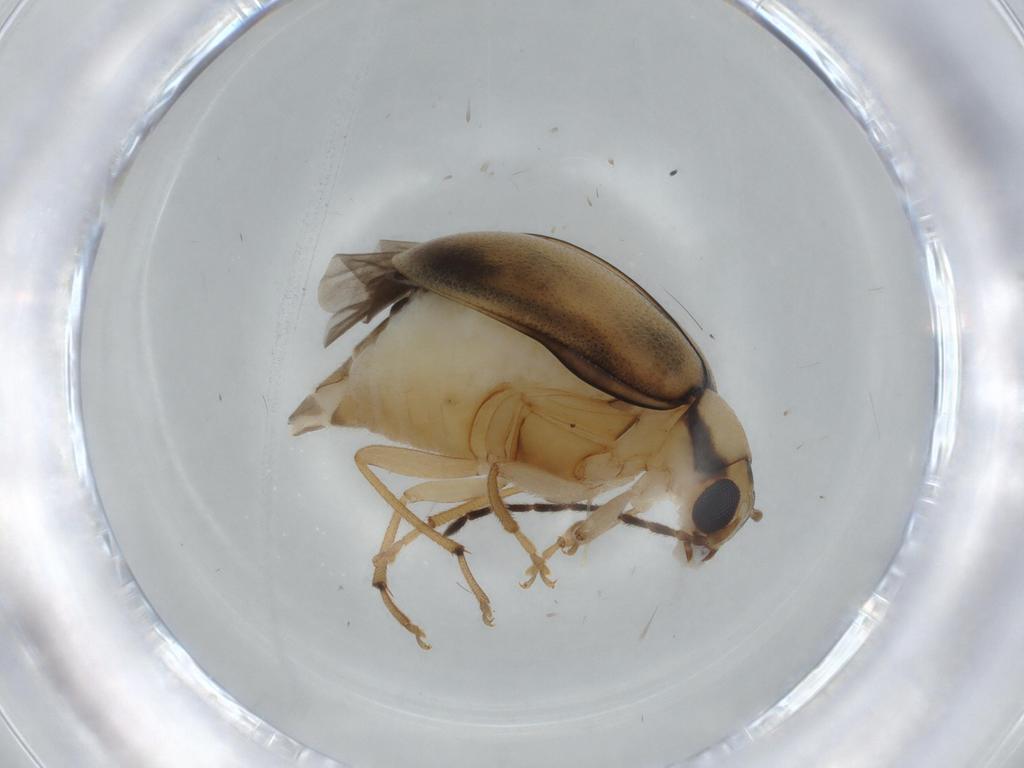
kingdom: Animalia
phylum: Arthropoda
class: Insecta
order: Coleoptera
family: Chrysomelidae
